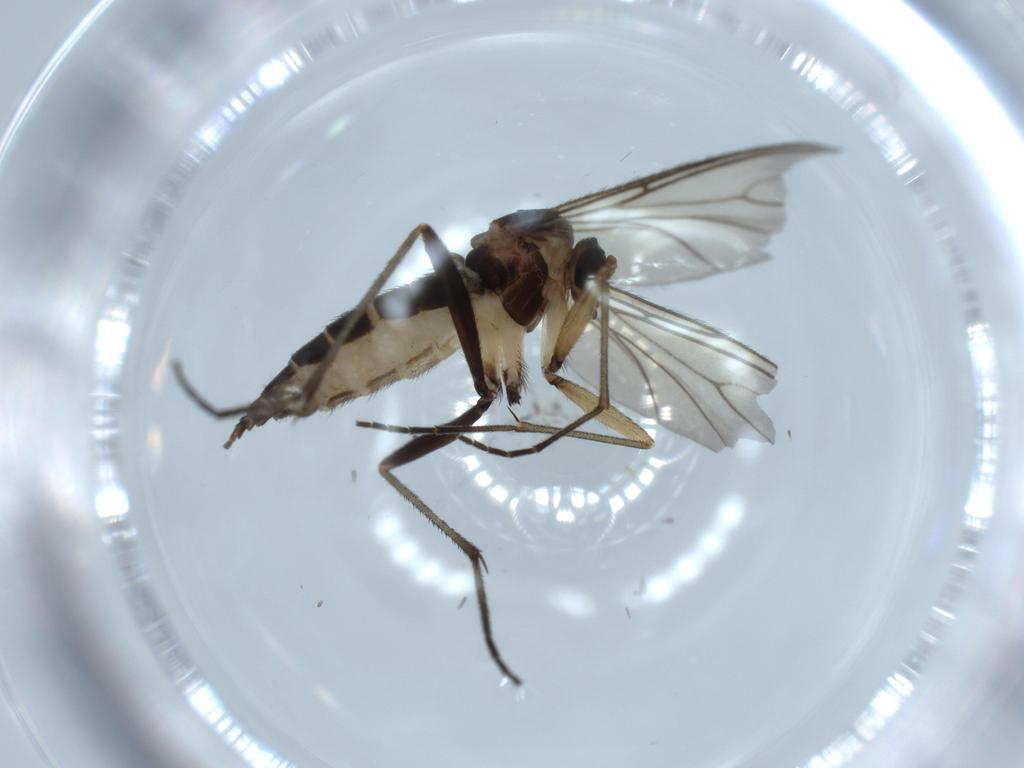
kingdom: Animalia
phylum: Arthropoda
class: Insecta
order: Diptera
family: Sciaridae
